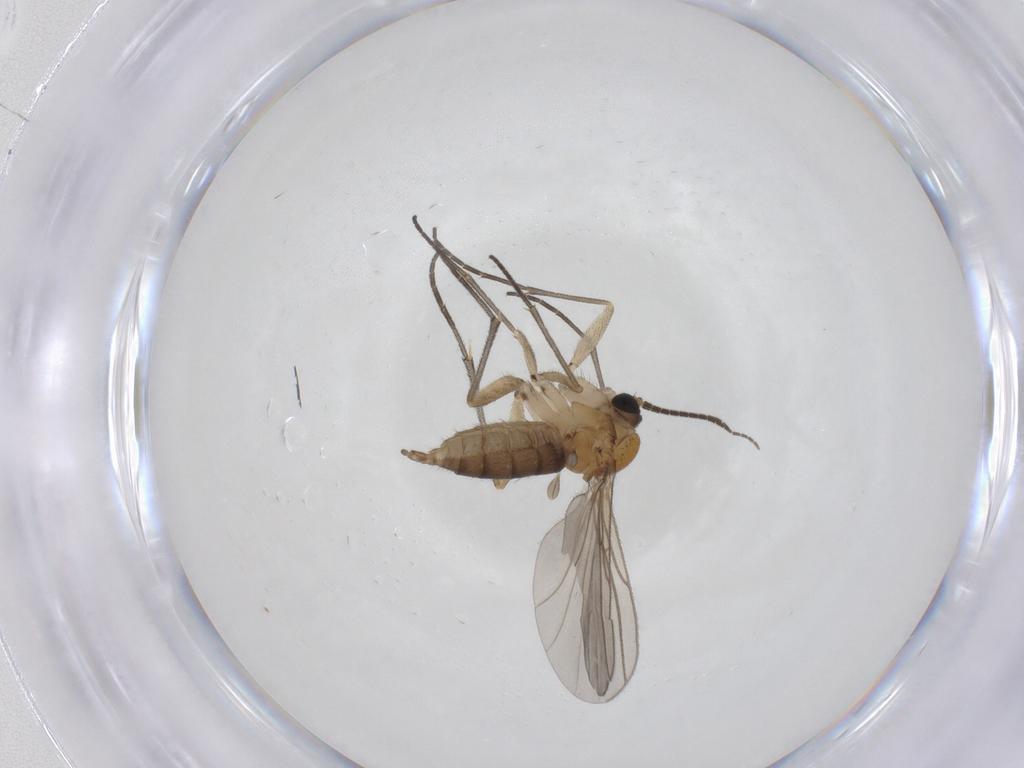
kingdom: Animalia
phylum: Arthropoda
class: Insecta
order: Diptera
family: Sciaridae
